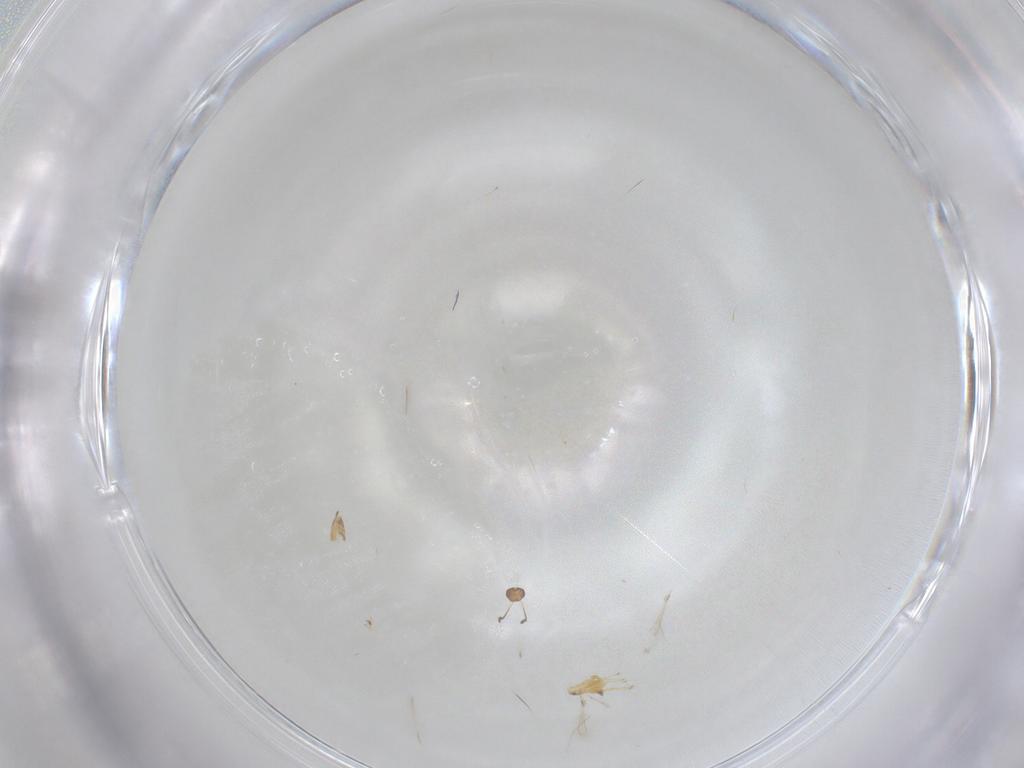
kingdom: Animalia
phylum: Arthropoda
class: Insecta
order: Hymenoptera
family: Mymaridae
